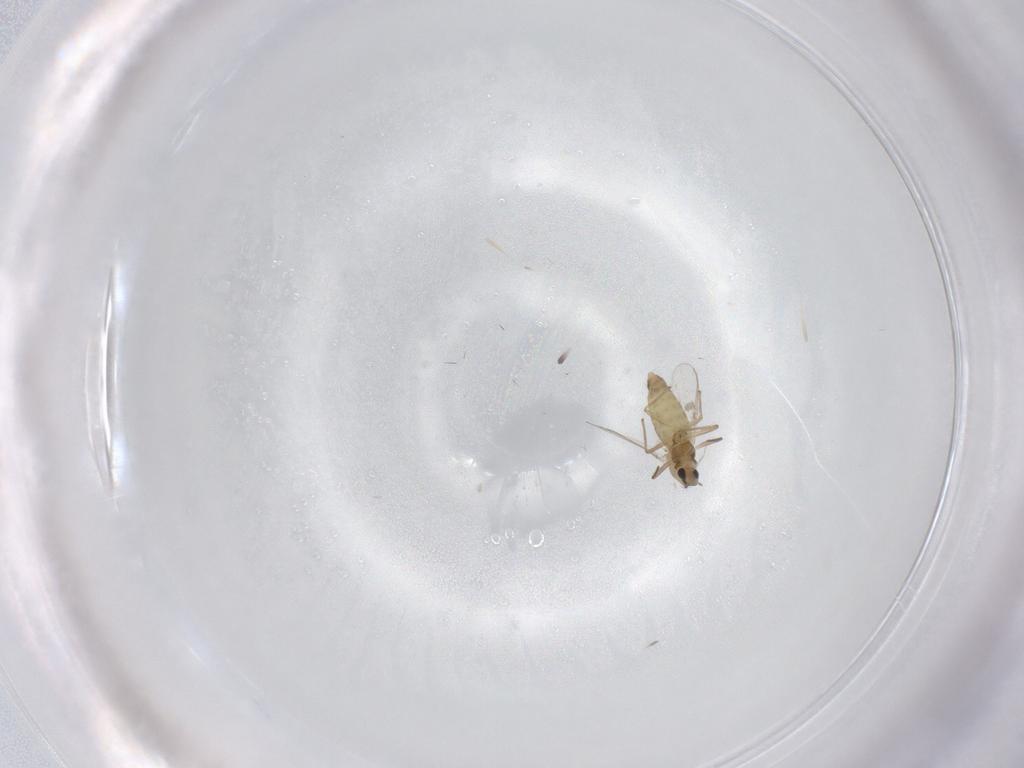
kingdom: Animalia
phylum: Arthropoda
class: Insecta
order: Diptera
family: Chironomidae
